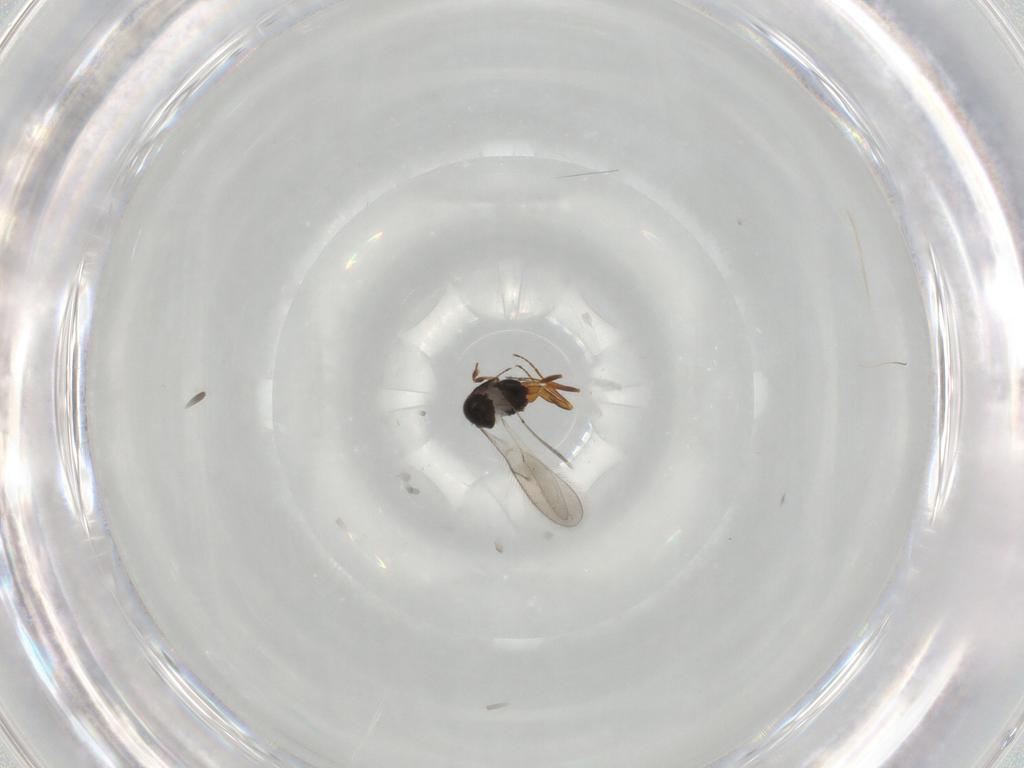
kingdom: Animalia
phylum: Arthropoda
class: Insecta
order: Hymenoptera
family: Scelionidae
